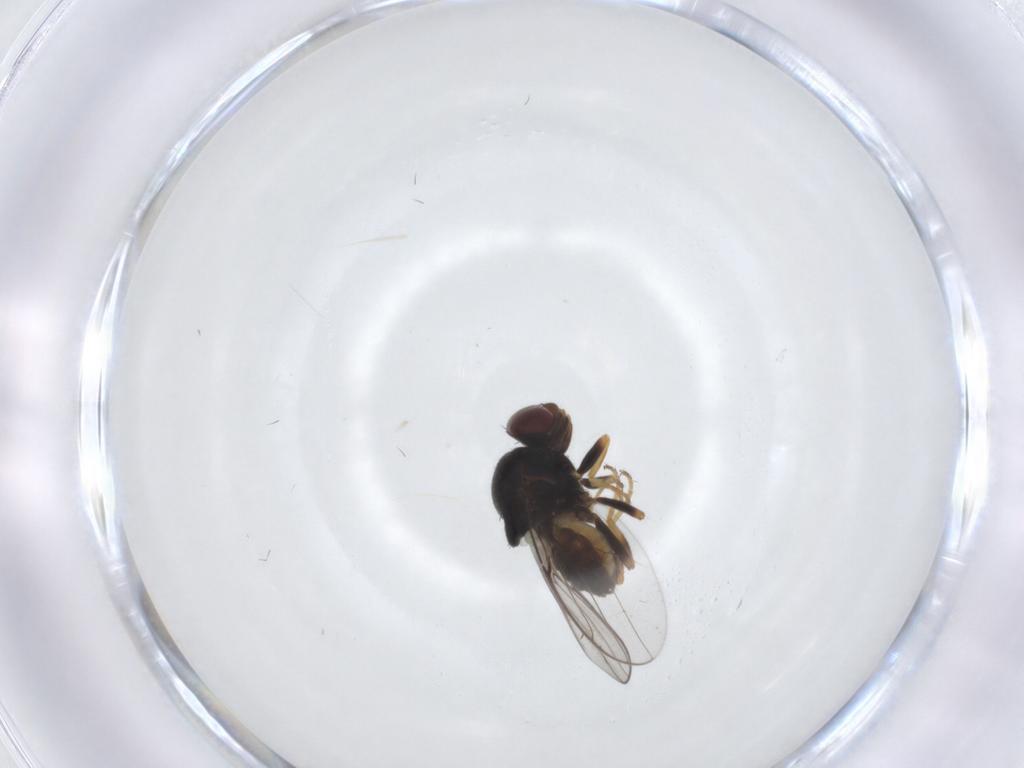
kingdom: Animalia
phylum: Arthropoda
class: Insecta
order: Diptera
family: Chloropidae
